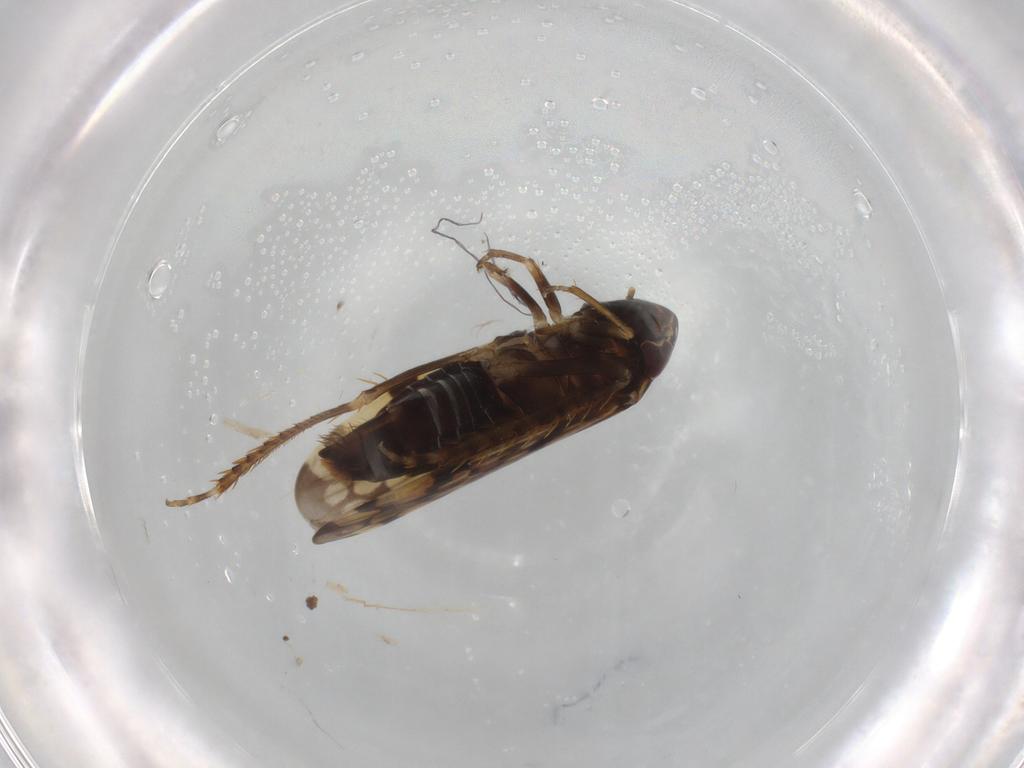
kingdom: Animalia
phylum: Arthropoda
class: Insecta
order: Hemiptera
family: Cicadellidae
